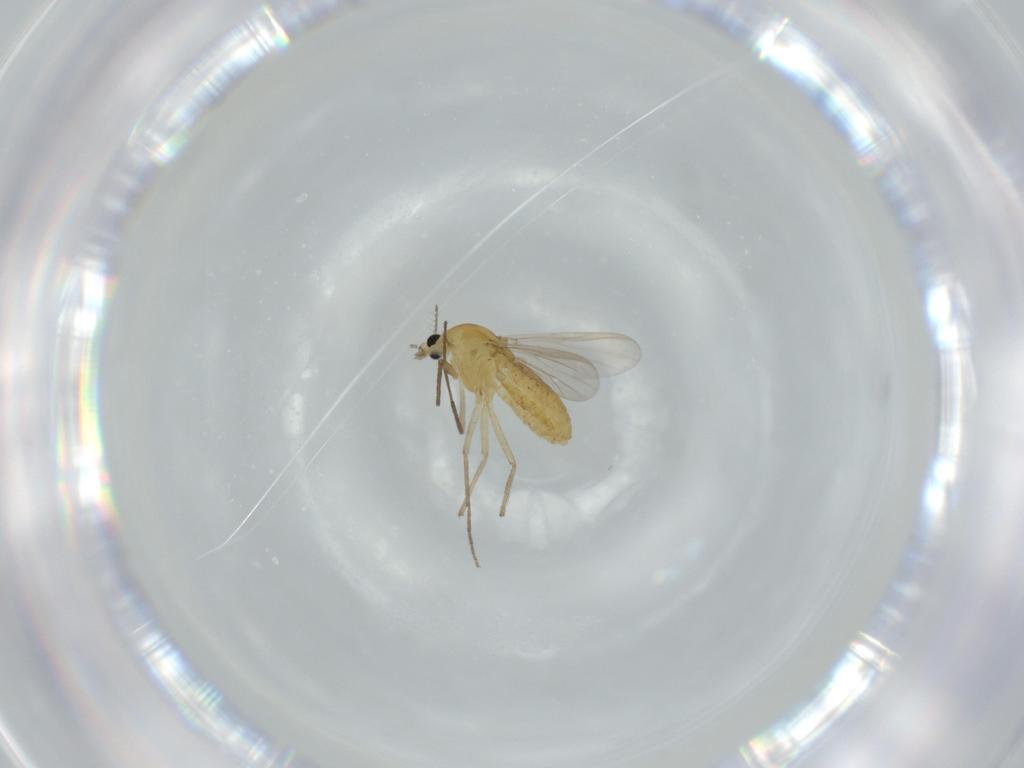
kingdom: Animalia
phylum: Arthropoda
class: Insecta
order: Diptera
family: Chironomidae
